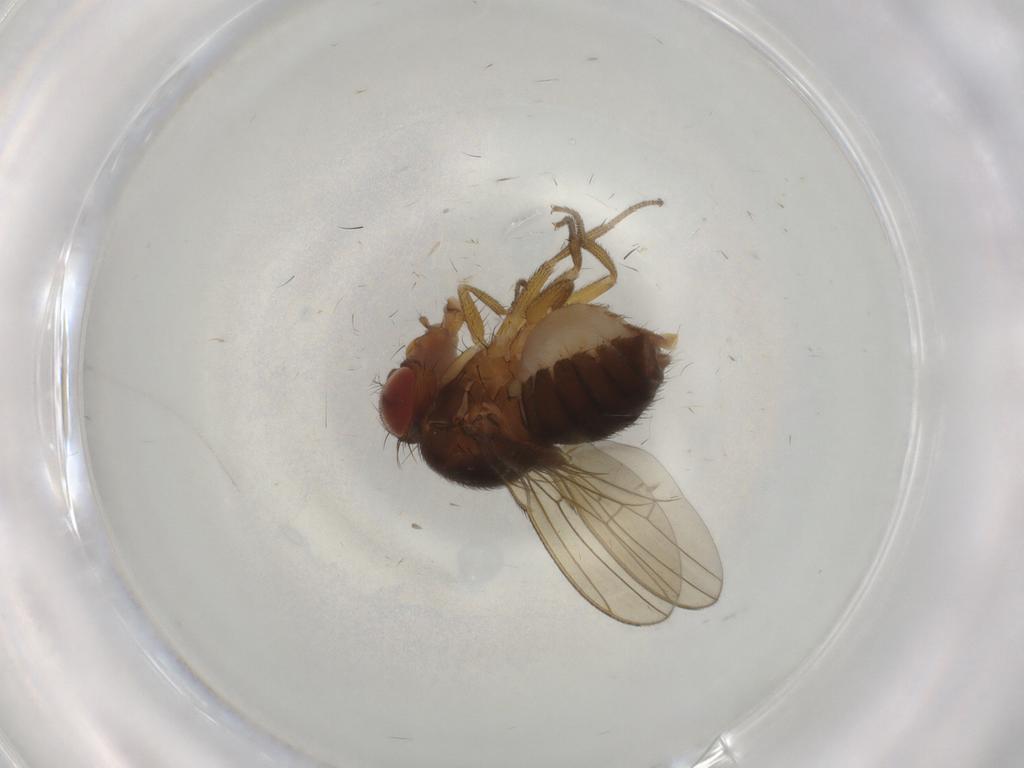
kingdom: Animalia
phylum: Arthropoda
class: Insecta
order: Diptera
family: Drosophilidae
